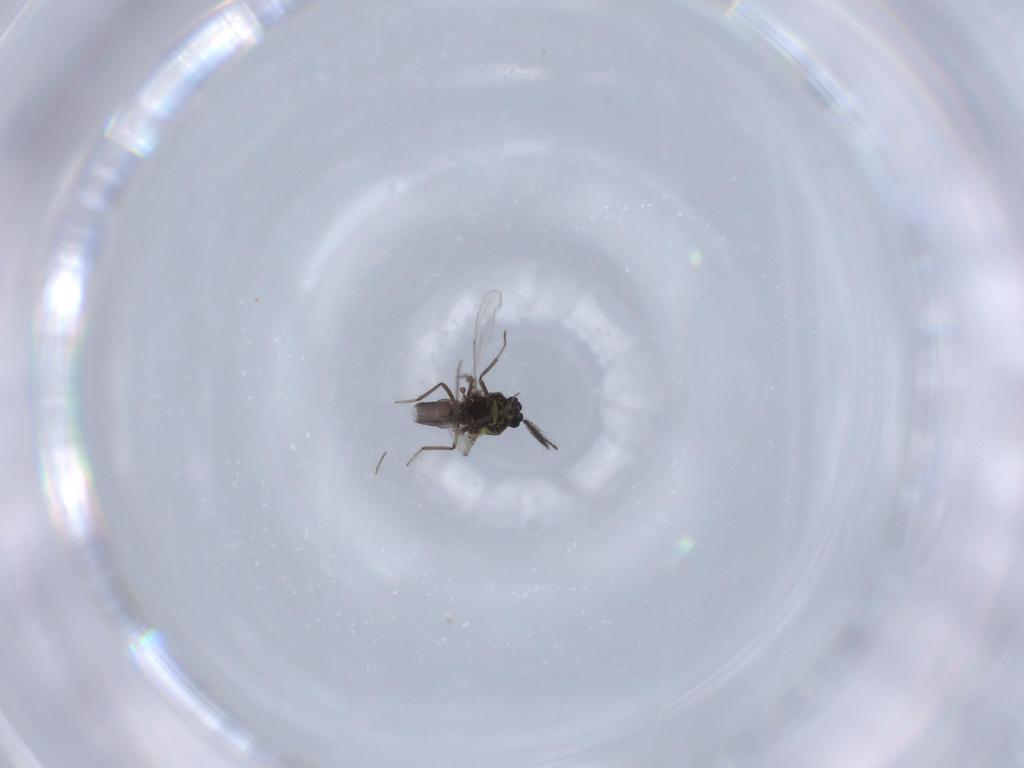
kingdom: Animalia
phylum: Arthropoda
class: Insecta
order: Diptera
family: Ceratopogonidae
